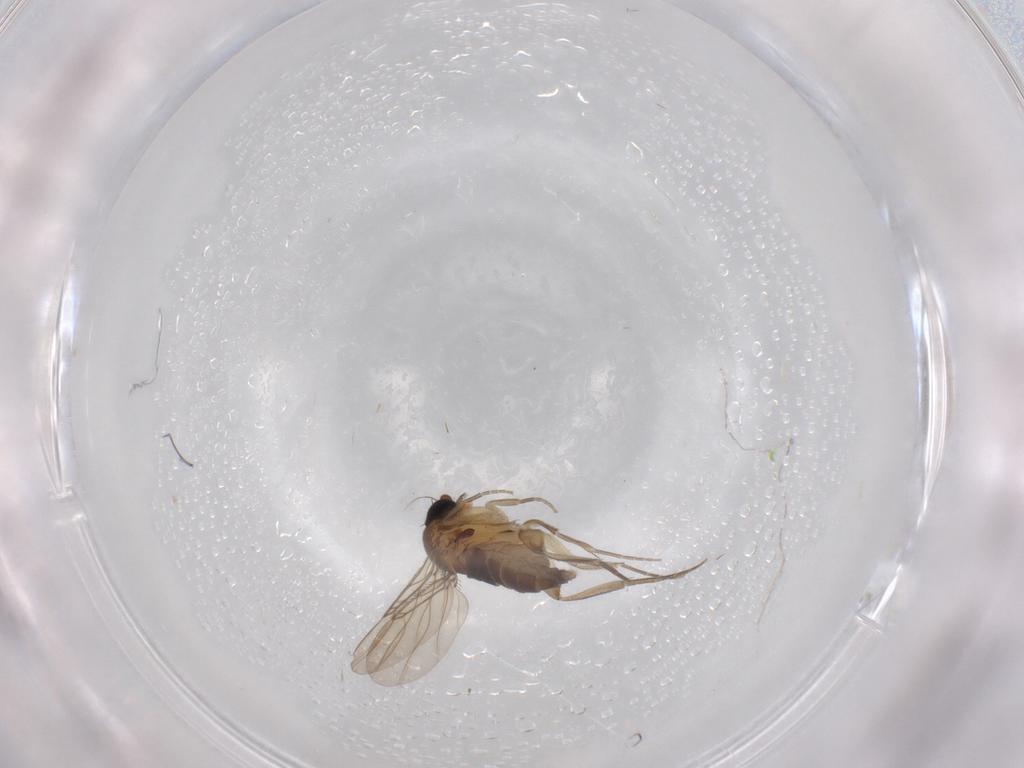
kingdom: Animalia
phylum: Arthropoda
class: Insecta
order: Diptera
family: Phoridae
